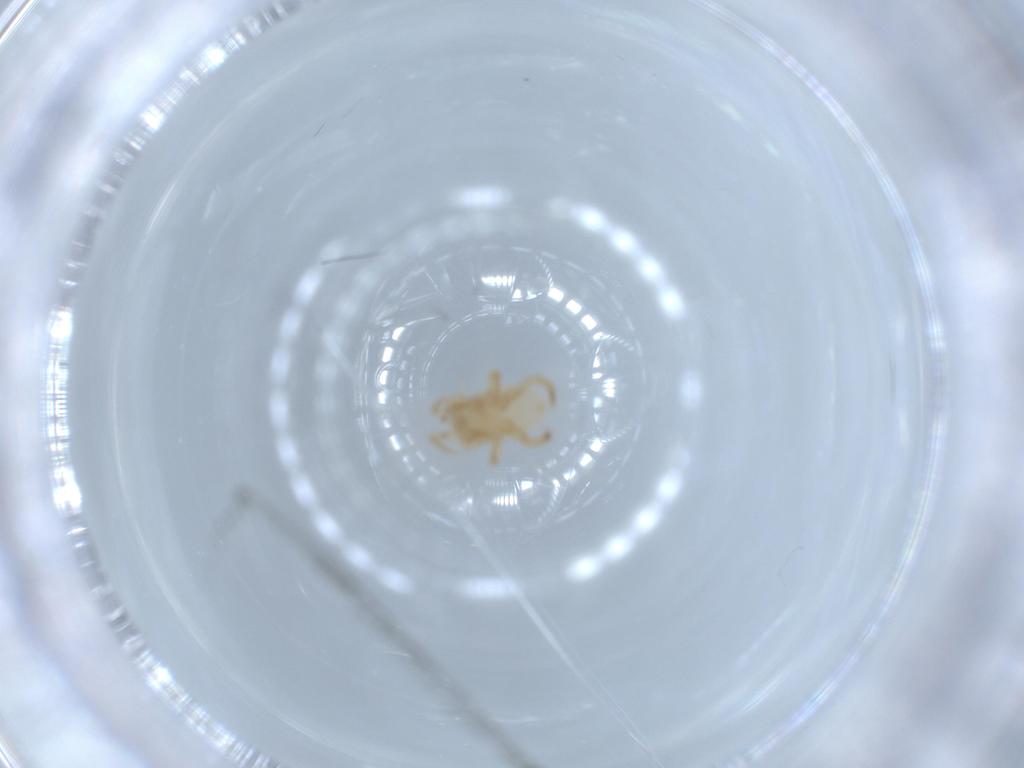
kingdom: Animalia
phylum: Arthropoda
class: Arachnida
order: Mesostigmata
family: Parasitidae
